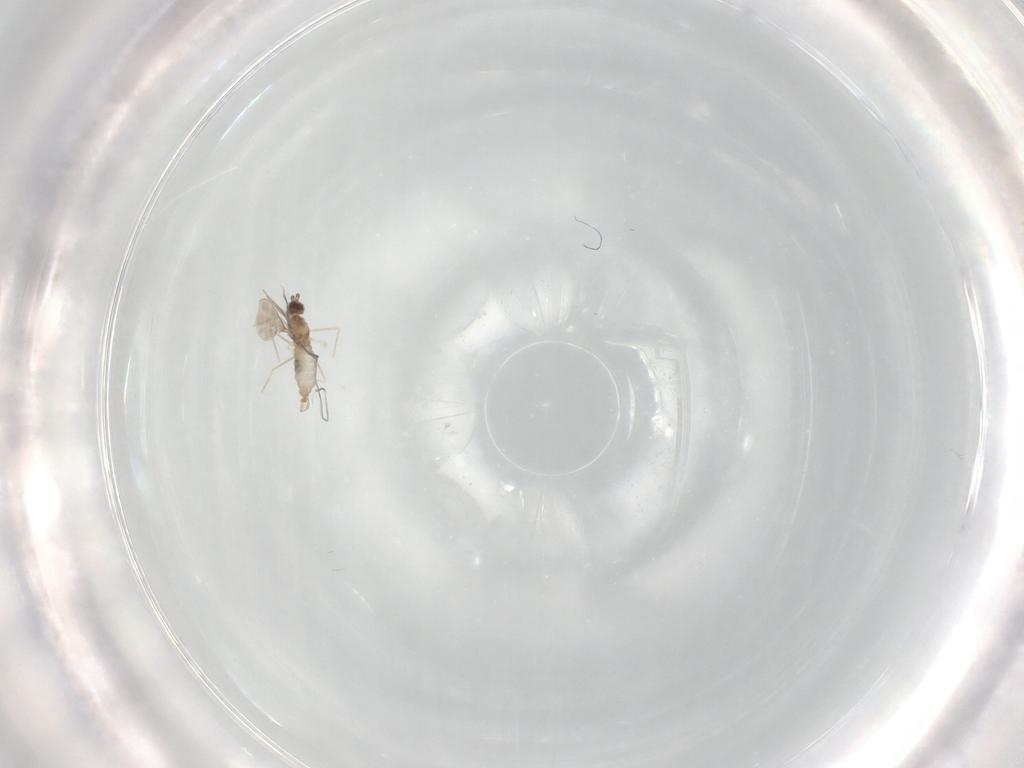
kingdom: Animalia
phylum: Arthropoda
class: Insecta
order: Diptera
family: Cecidomyiidae
